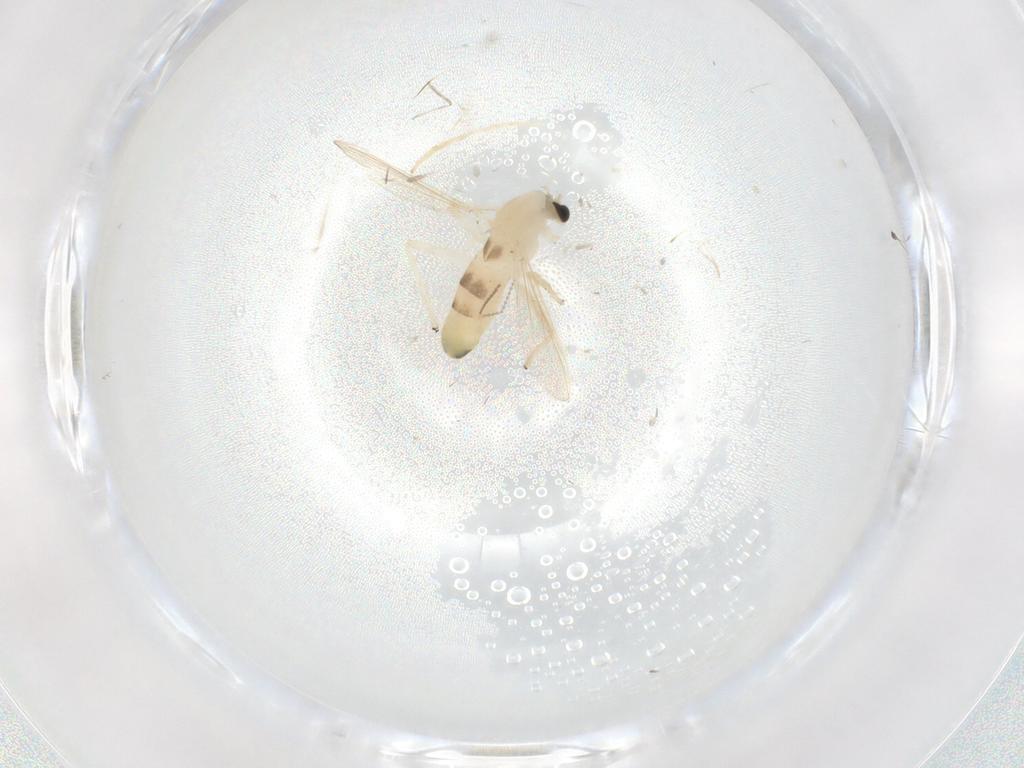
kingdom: Animalia
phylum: Arthropoda
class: Insecta
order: Diptera
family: Chironomidae
